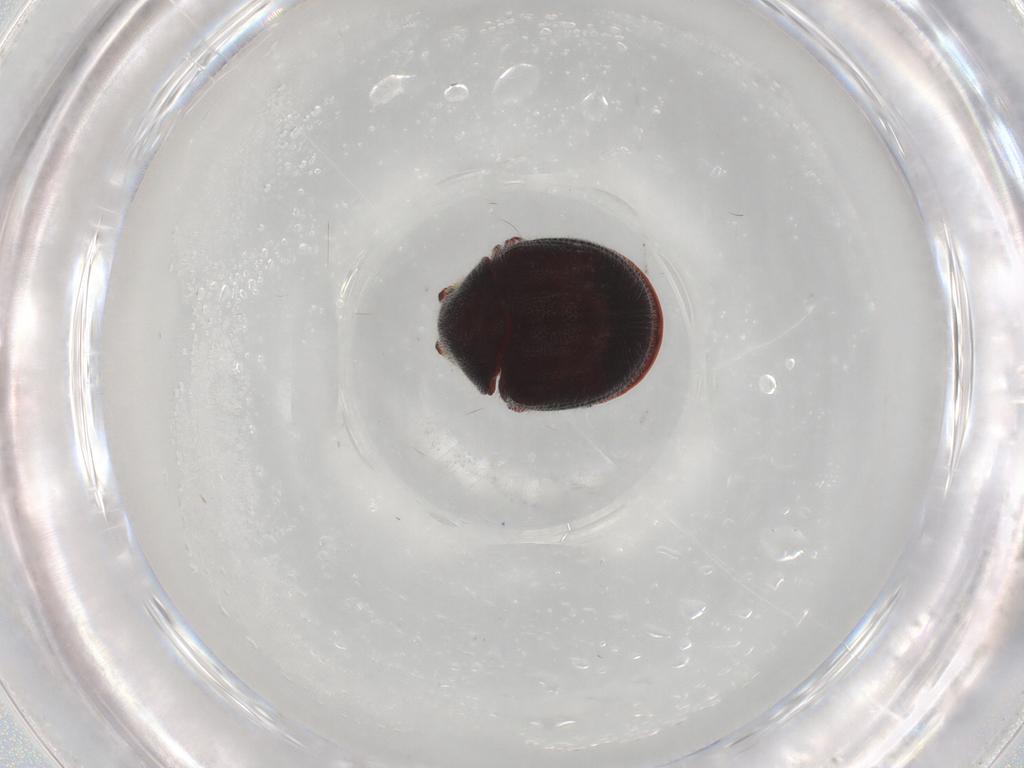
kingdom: Animalia
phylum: Arthropoda
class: Insecta
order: Coleoptera
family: Ptinidae
